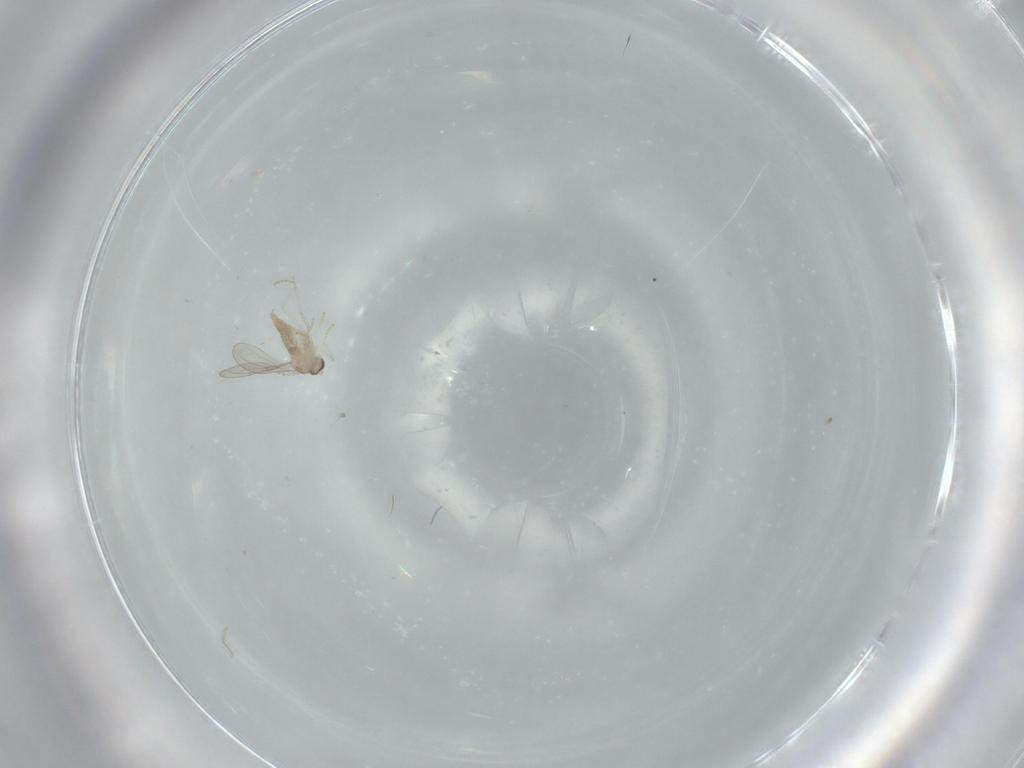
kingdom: Animalia
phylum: Arthropoda
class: Insecta
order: Diptera
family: Cecidomyiidae
